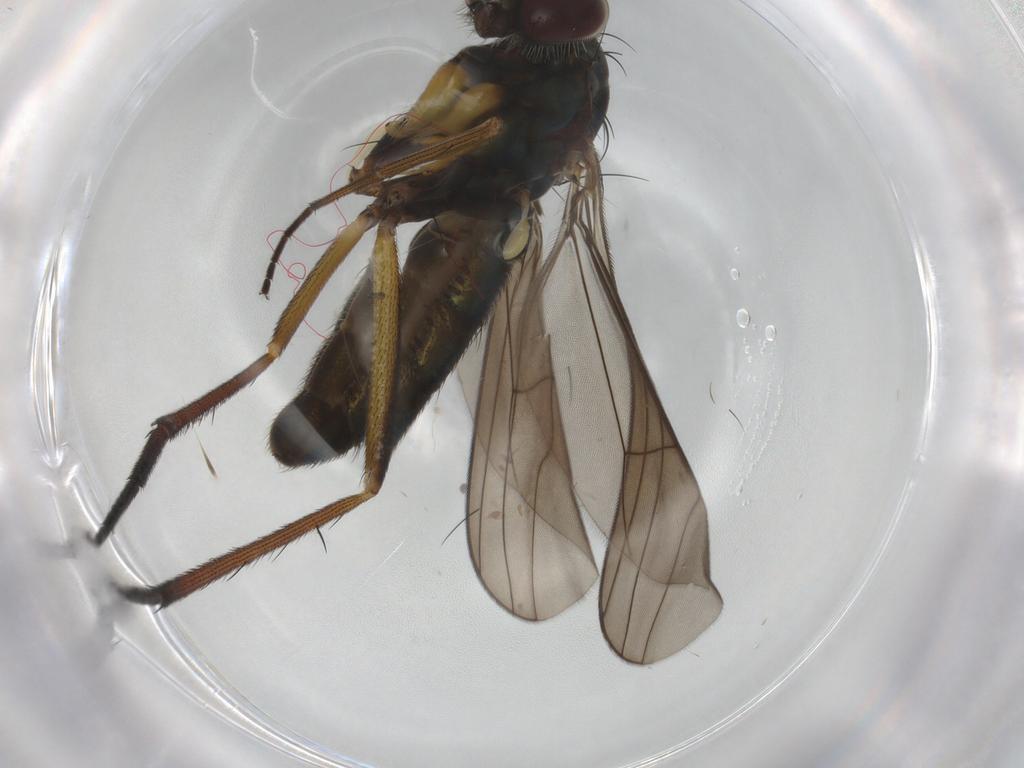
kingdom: Animalia
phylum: Arthropoda
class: Insecta
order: Diptera
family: Dolichopodidae
